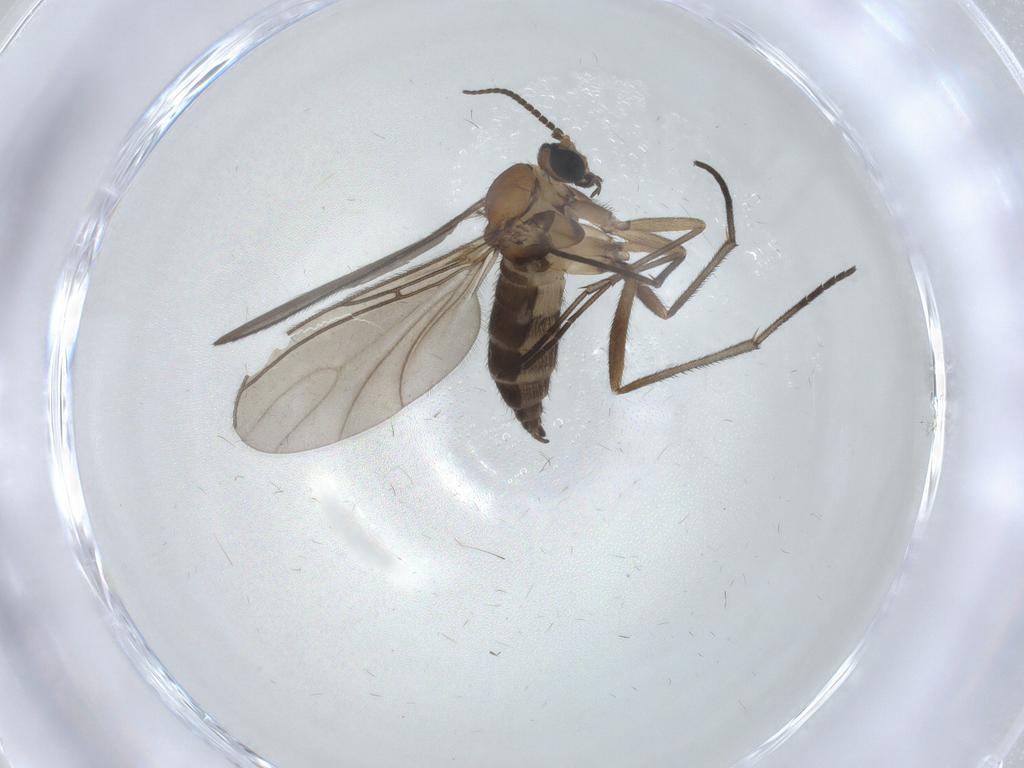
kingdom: Animalia
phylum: Arthropoda
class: Insecta
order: Diptera
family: Sciaridae
